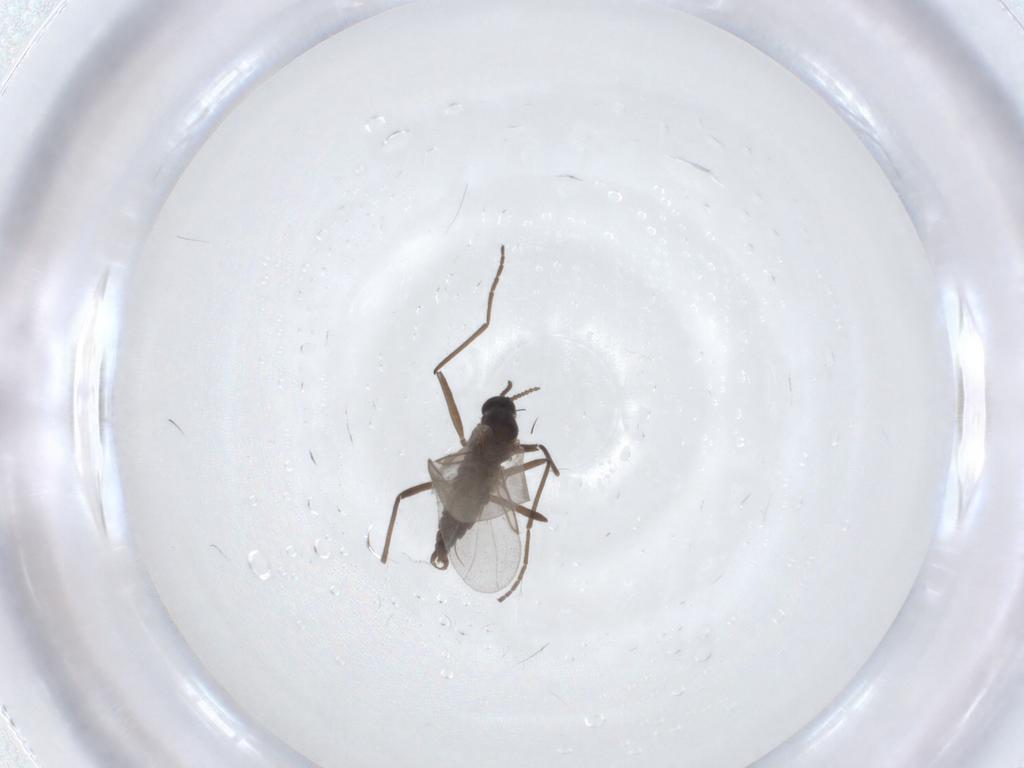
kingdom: Animalia
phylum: Arthropoda
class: Insecta
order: Diptera
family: Cecidomyiidae
